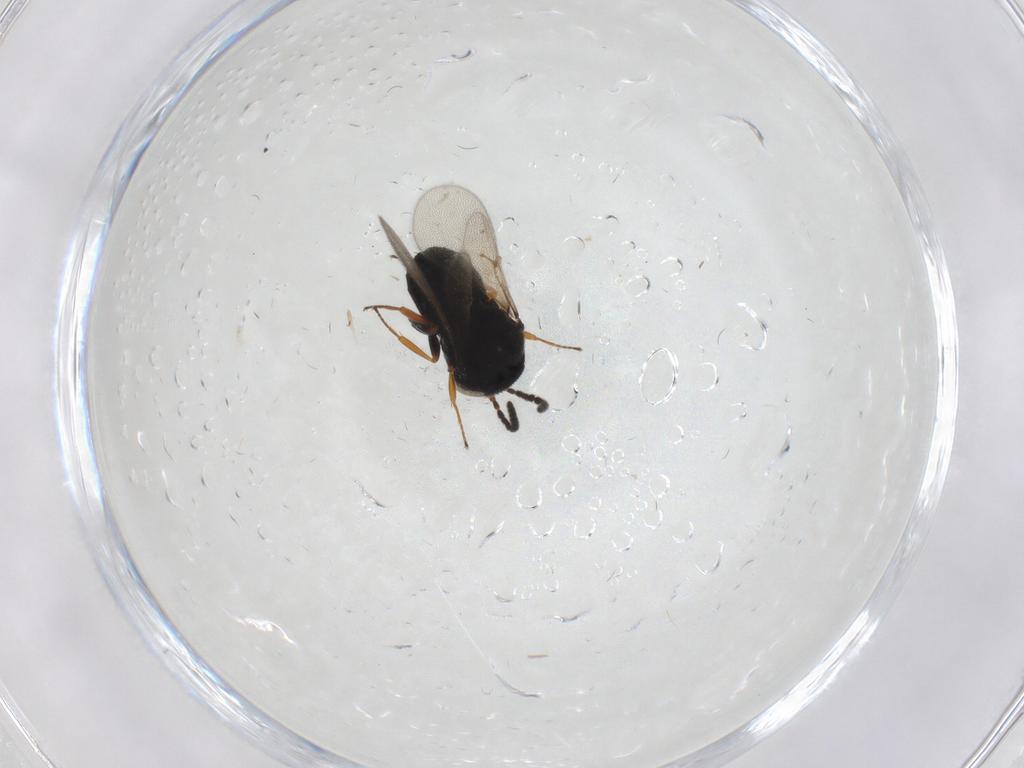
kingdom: Animalia
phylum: Arthropoda
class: Insecta
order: Hymenoptera
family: Scelionidae
